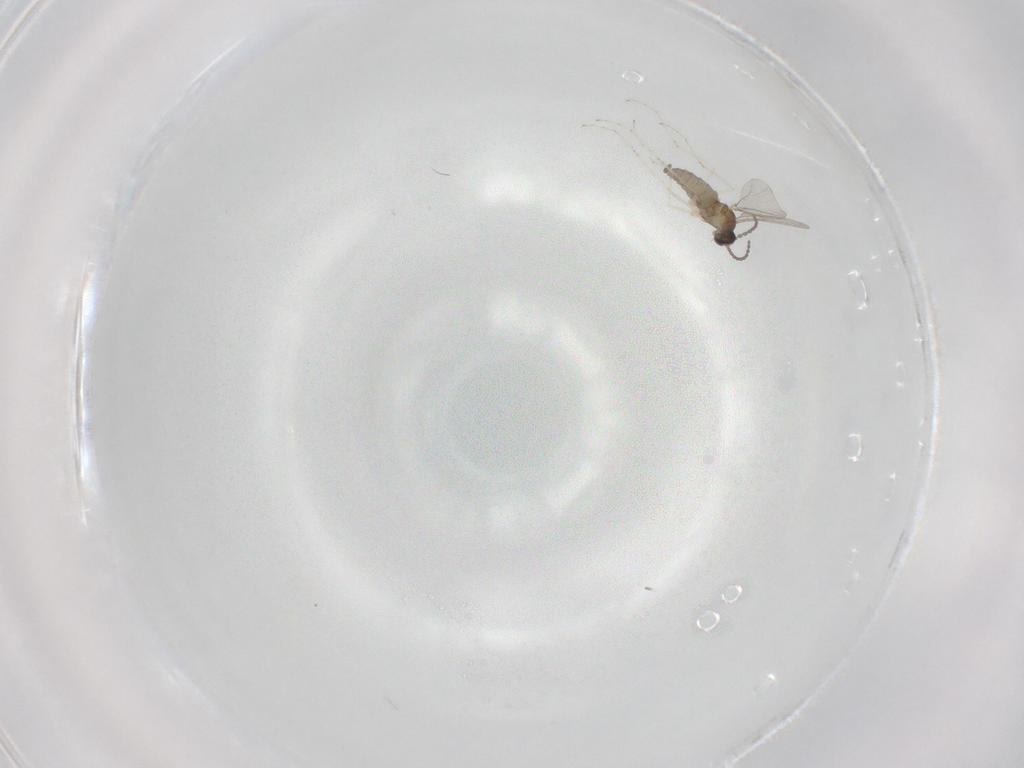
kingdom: Animalia
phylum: Arthropoda
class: Insecta
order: Diptera
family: Cecidomyiidae
